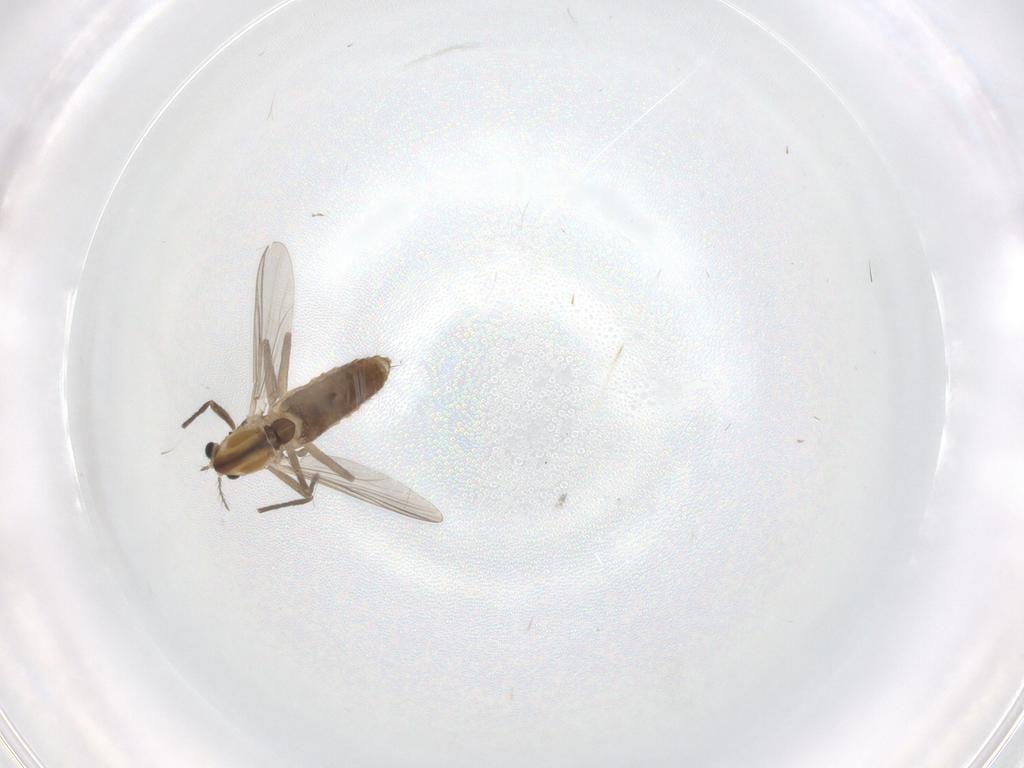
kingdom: Animalia
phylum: Arthropoda
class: Insecta
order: Diptera
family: Chironomidae
